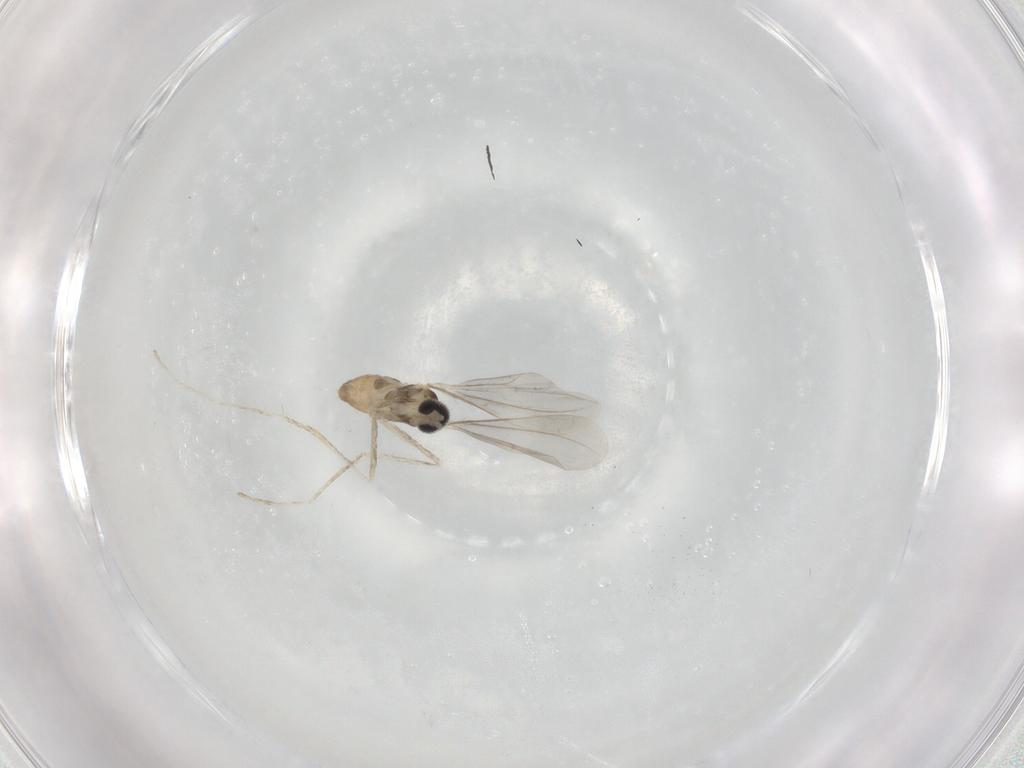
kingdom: Animalia
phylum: Arthropoda
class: Insecta
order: Diptera
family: Cecidomyiidae
